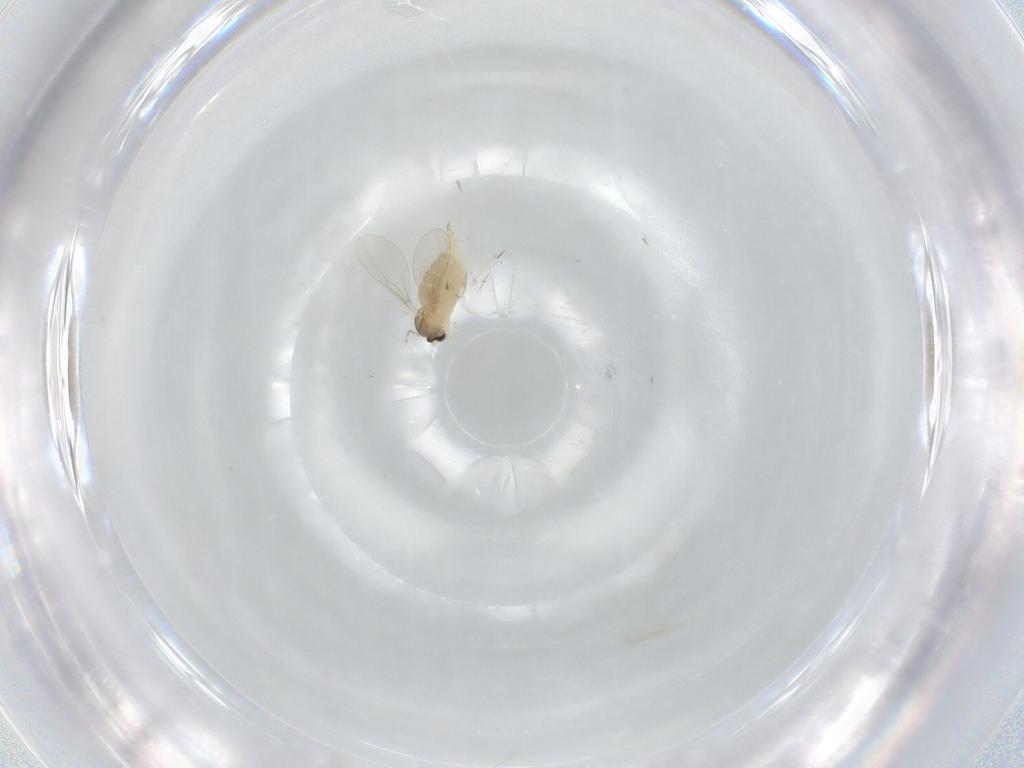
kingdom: Animalia
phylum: Arthropoda
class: Insecta
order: Diptera
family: Cecidomyiidae
